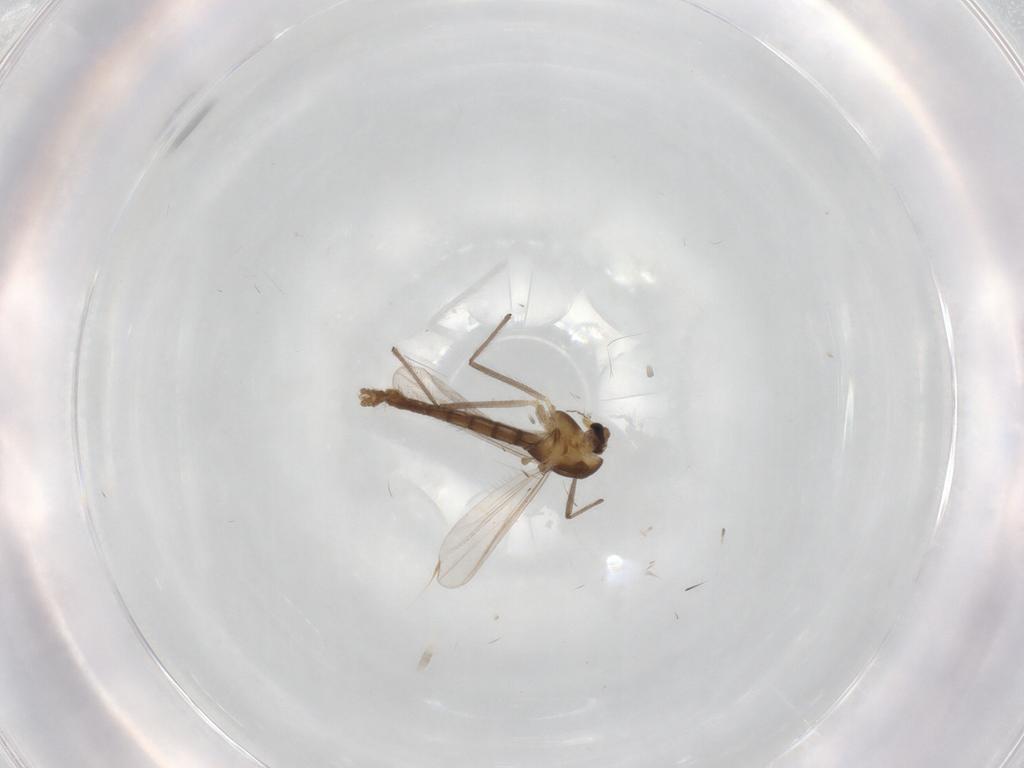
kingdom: Animalia
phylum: Arthropoda
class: Insecta
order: Diptera
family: Chironomidae
